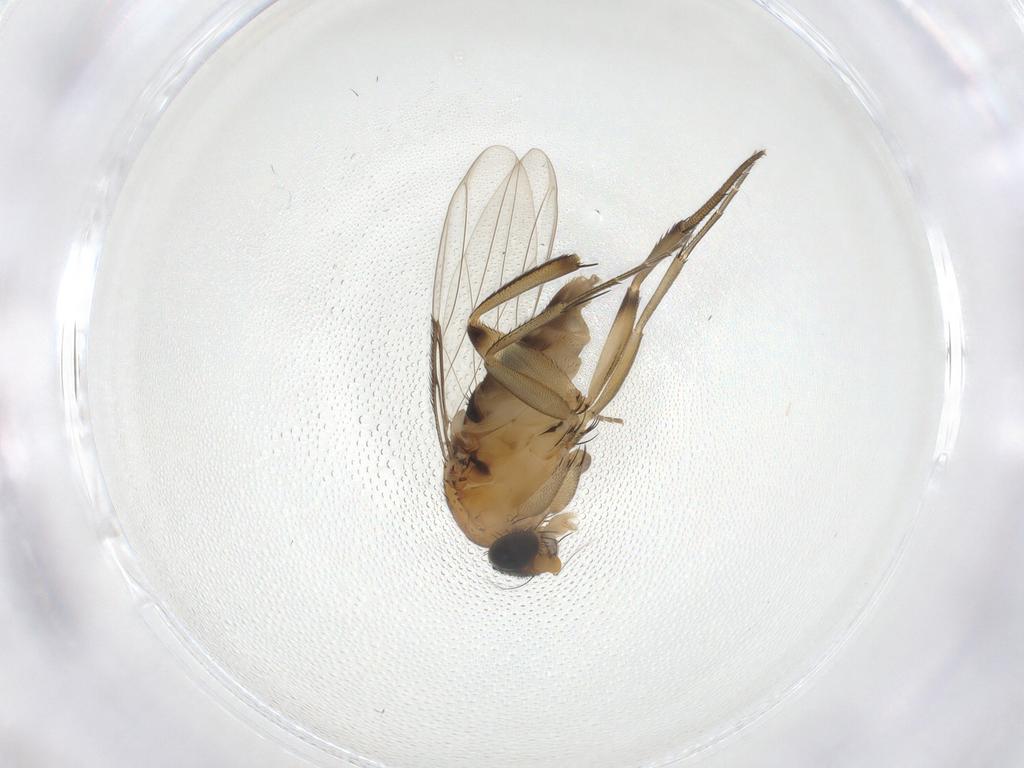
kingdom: Animalia
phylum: Arthropoda
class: Insecta
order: Diptera
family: Phoridae
